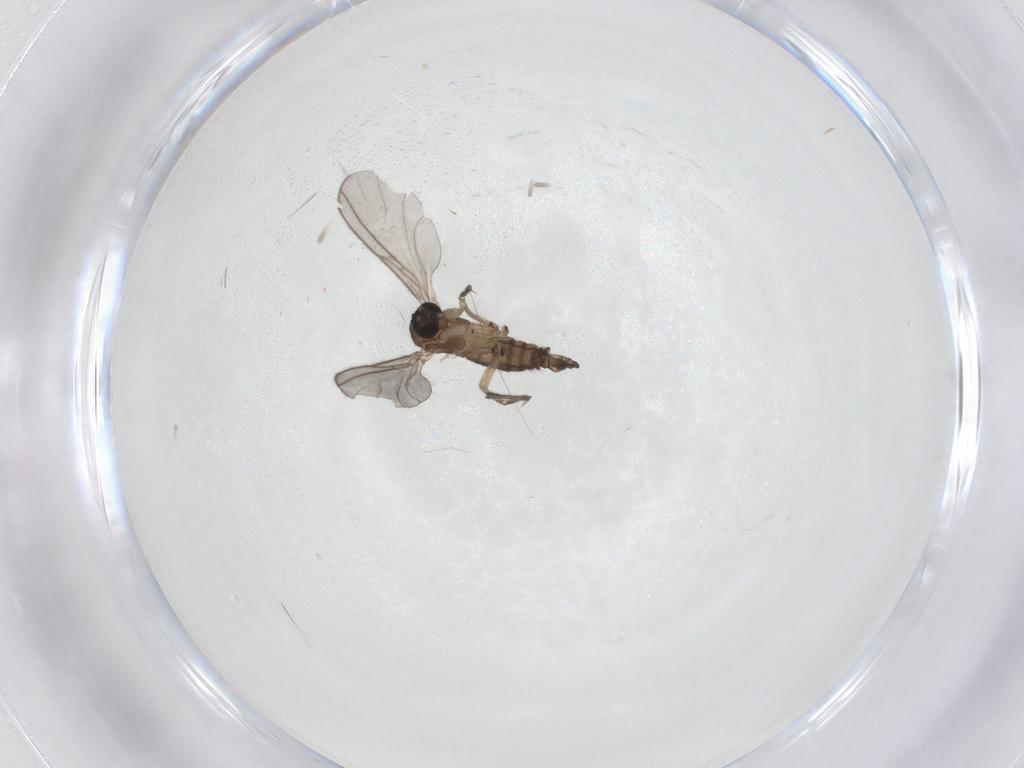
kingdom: Animalia
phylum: Arthropoda
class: Insecta
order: Diptera
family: Sciaridae
